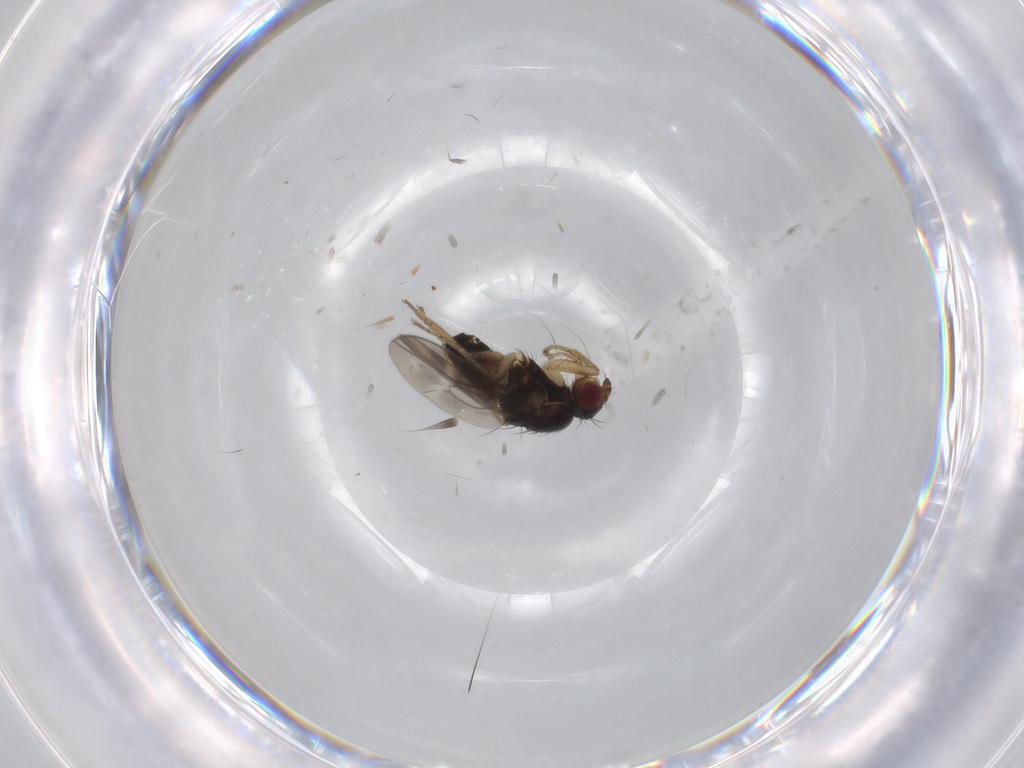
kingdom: Animalia
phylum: Arthropoda
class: Insecta
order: Diptera
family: Sphaeroceridae
